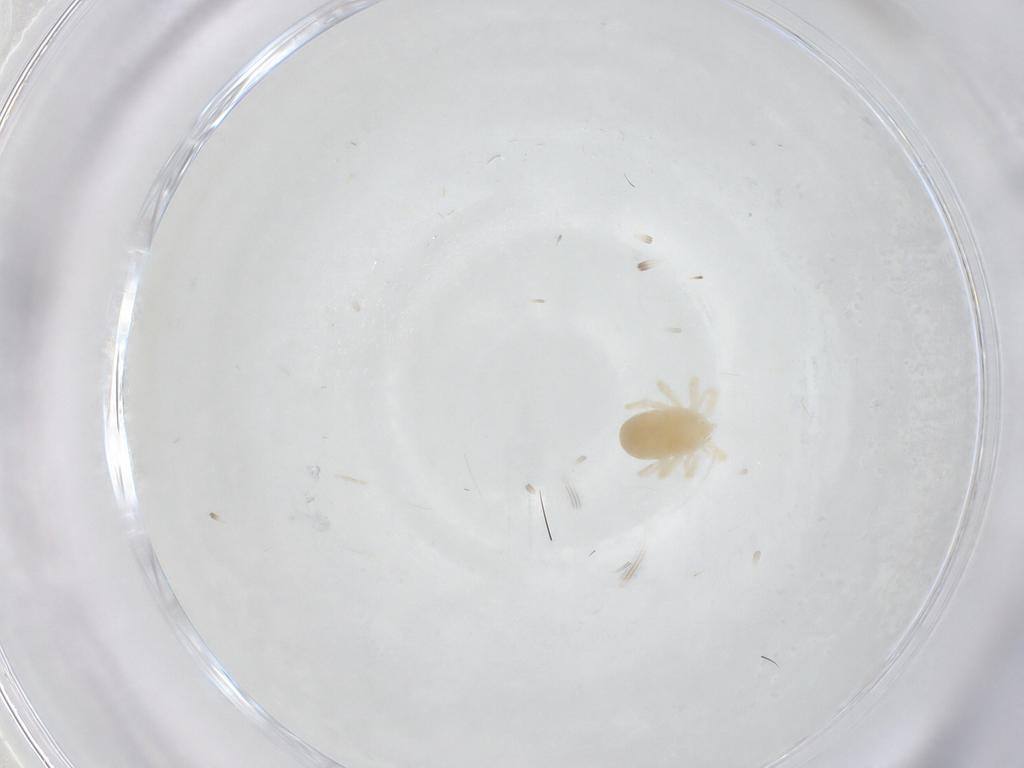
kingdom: Animalia
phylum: Arthropoda
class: Arachnida
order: Trombidiformes
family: Anystidae
